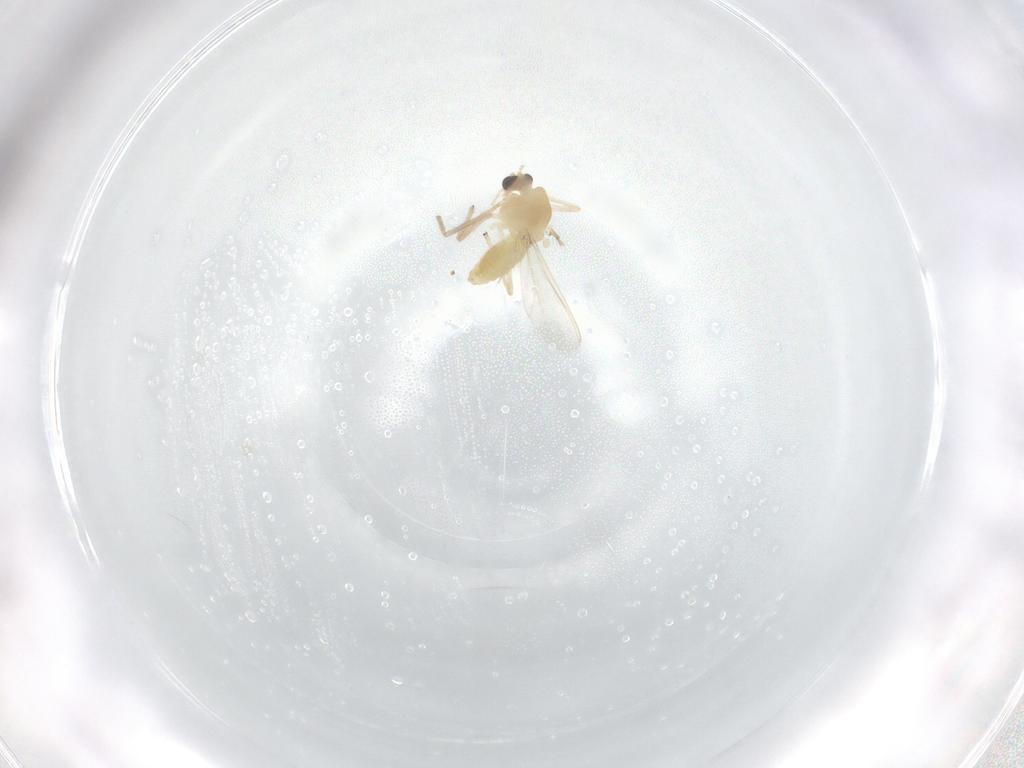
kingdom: Animalia
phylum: Arthropoda
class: Insecta
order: Diptera
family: Chironomidae
